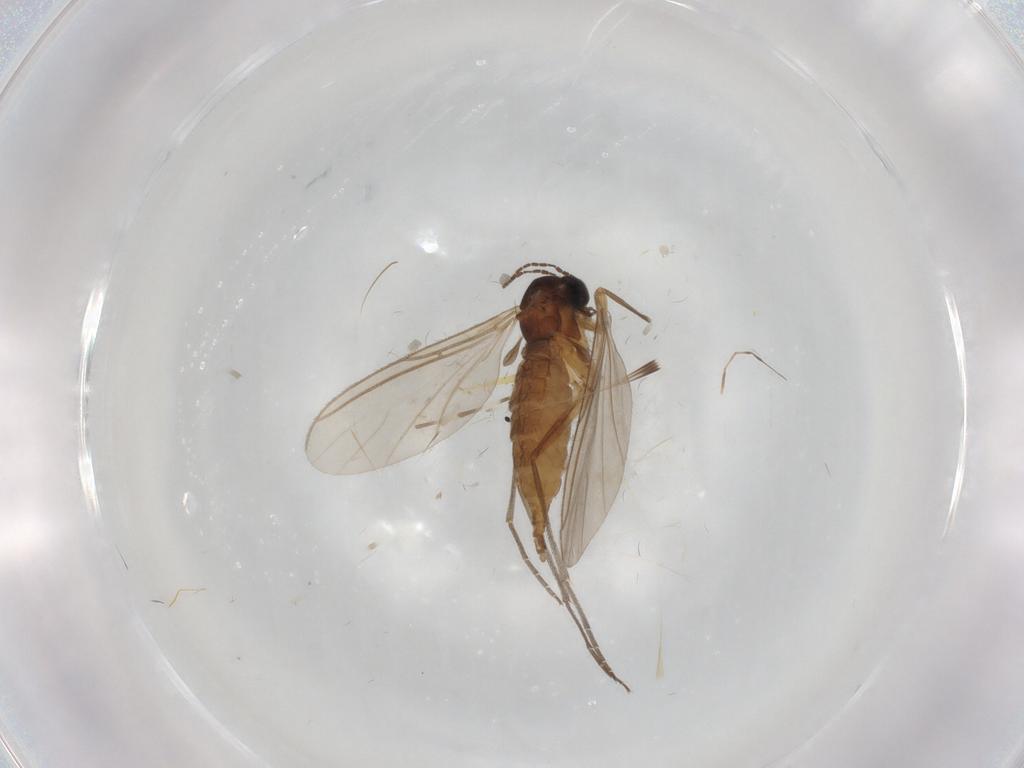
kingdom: Animalia
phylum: Arthropoda
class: Insecta
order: Diptera
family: Sciaridae
